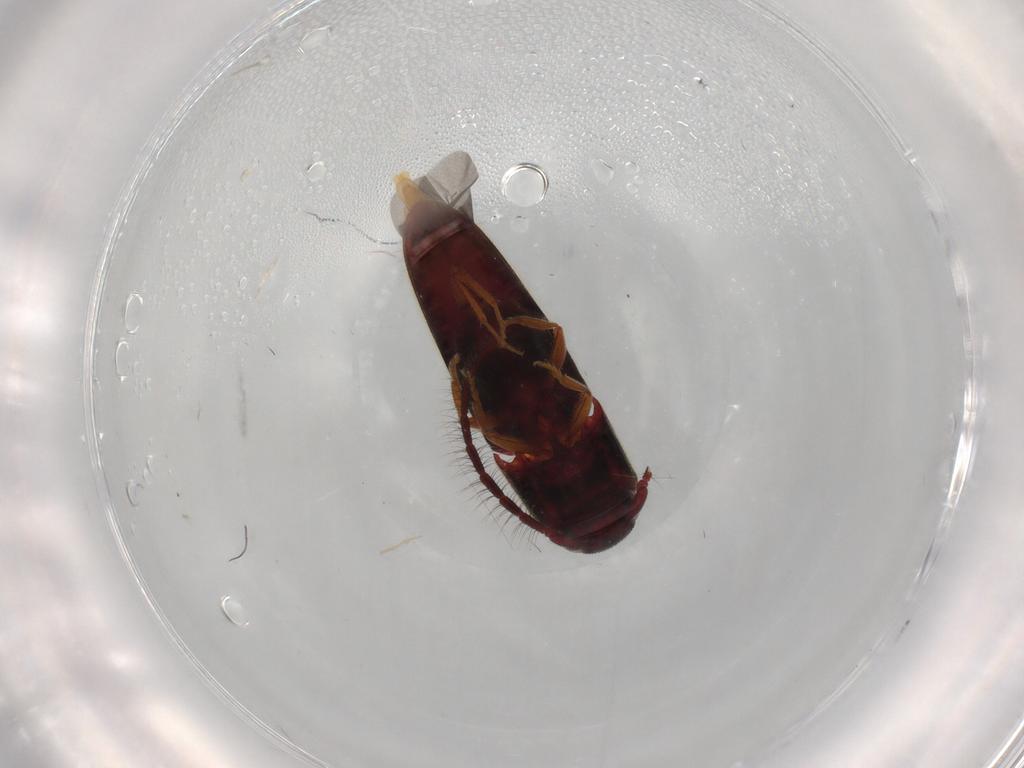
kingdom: Animalia
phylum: Arthropoda
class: Insecta
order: Coleoptera
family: Eucnemidae
